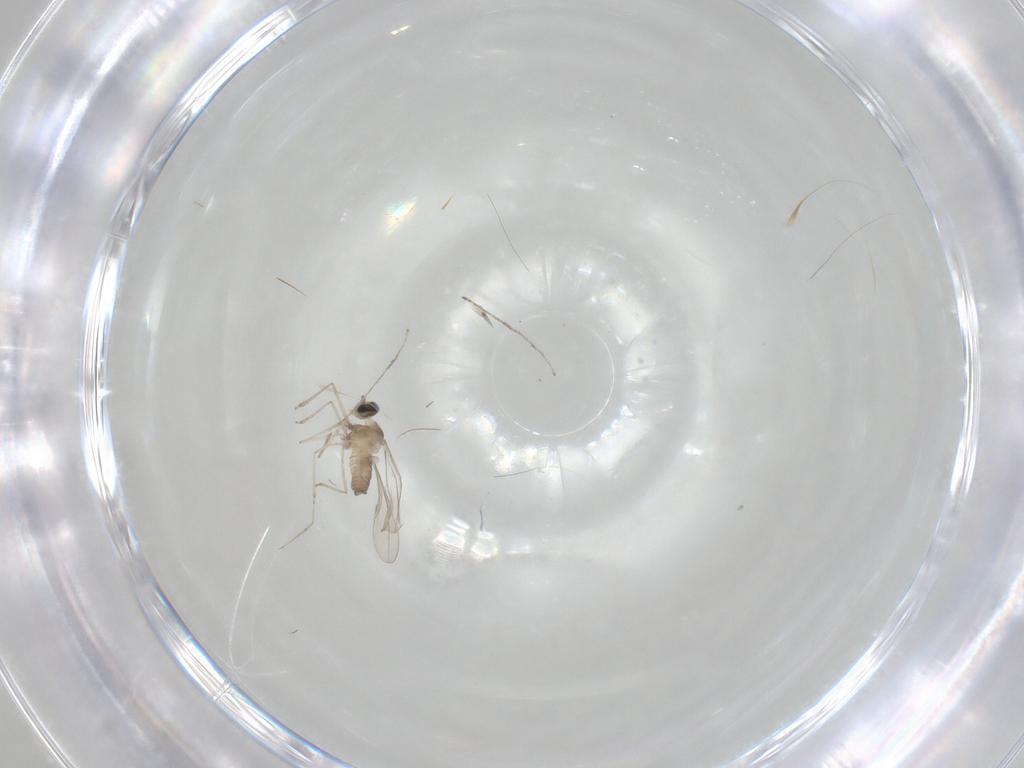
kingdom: Animalia
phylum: Arthropoda
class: Insecta
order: Diptera
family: Cecidomyiidae
